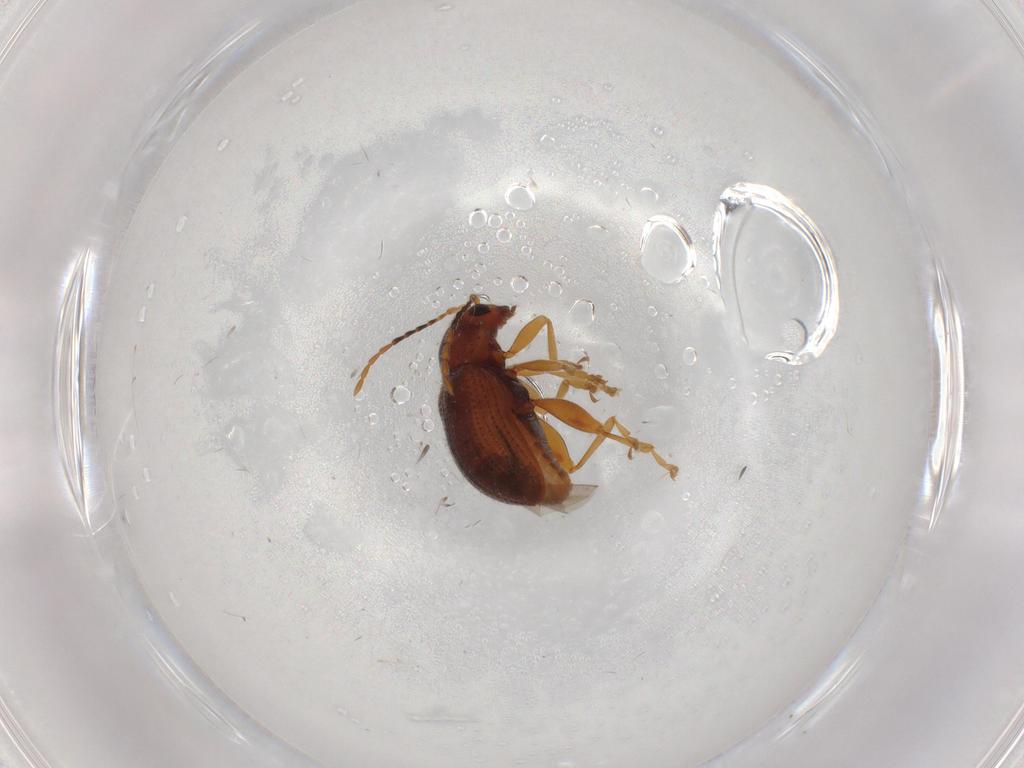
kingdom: Animalia
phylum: Arthropoda
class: Insecta
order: Coleoptera
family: Chrysomelidae
